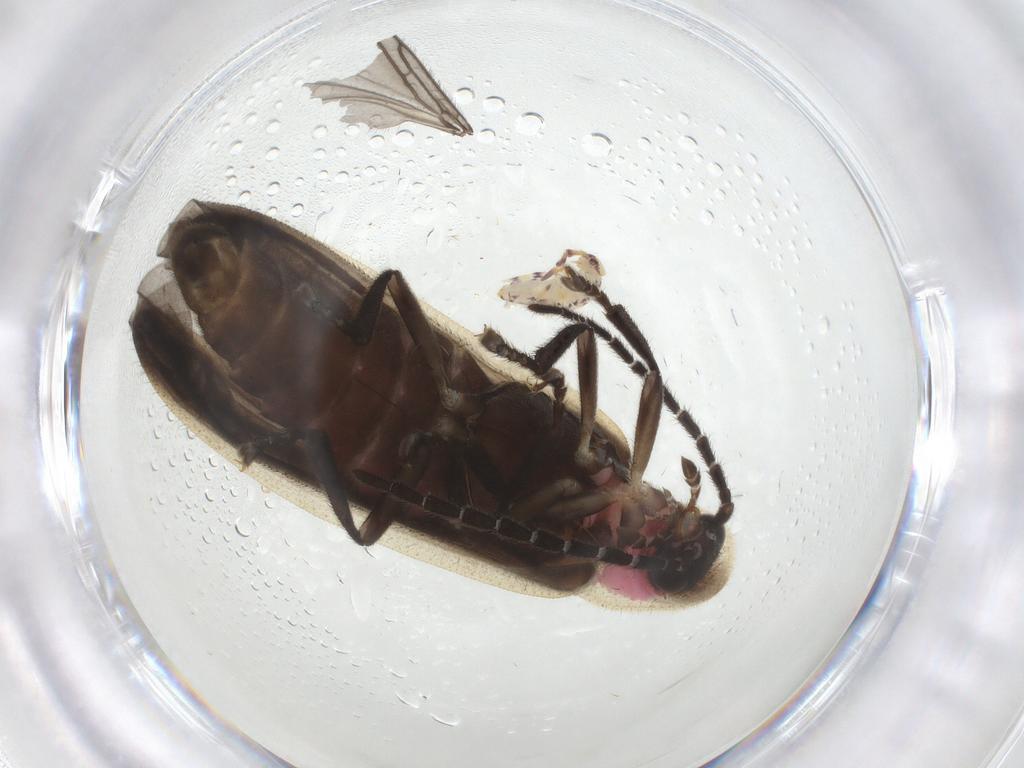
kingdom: Animalia
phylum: Arthropoda
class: Insecta
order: Coleoptera
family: Lampyridae
